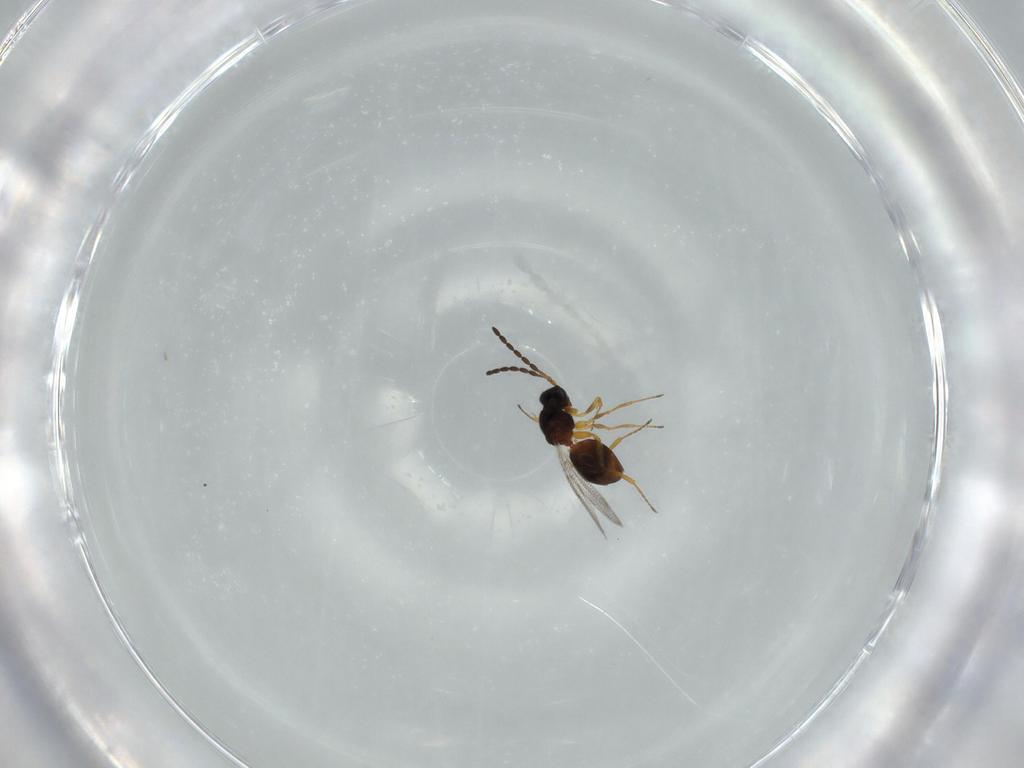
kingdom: Animalia
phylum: Arthropoda
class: Insecta
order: Hymenoptera
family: Figitidae
